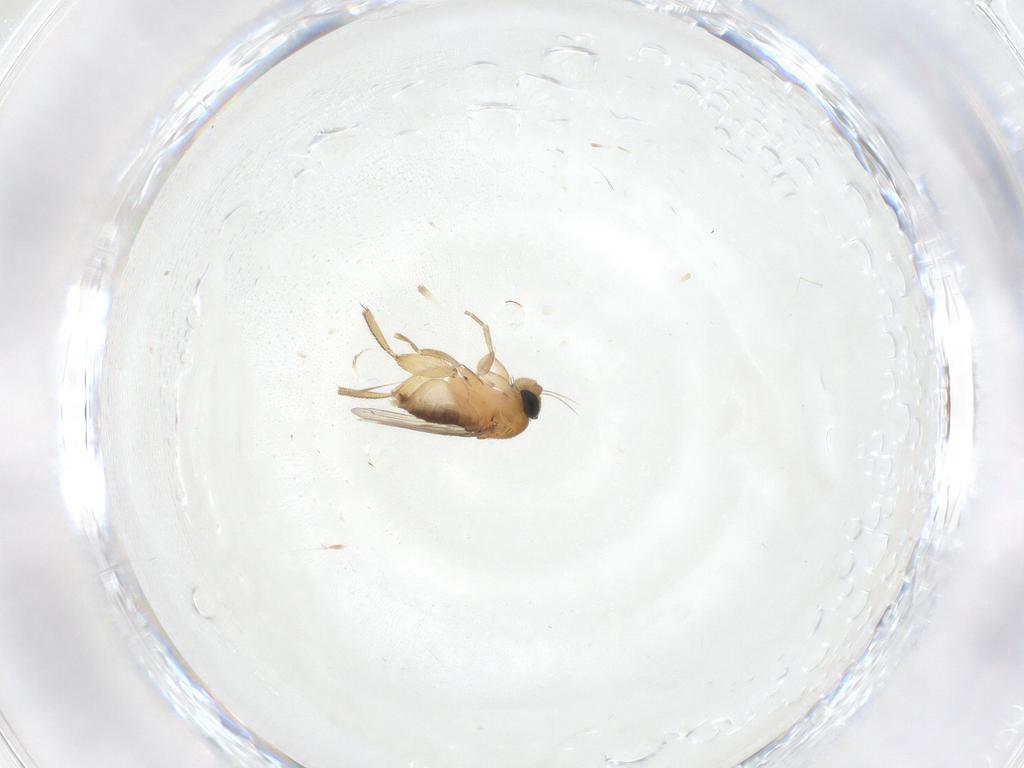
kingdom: Animalia
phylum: Arthropoda
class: Insecta
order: Diptera
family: Phoridae
